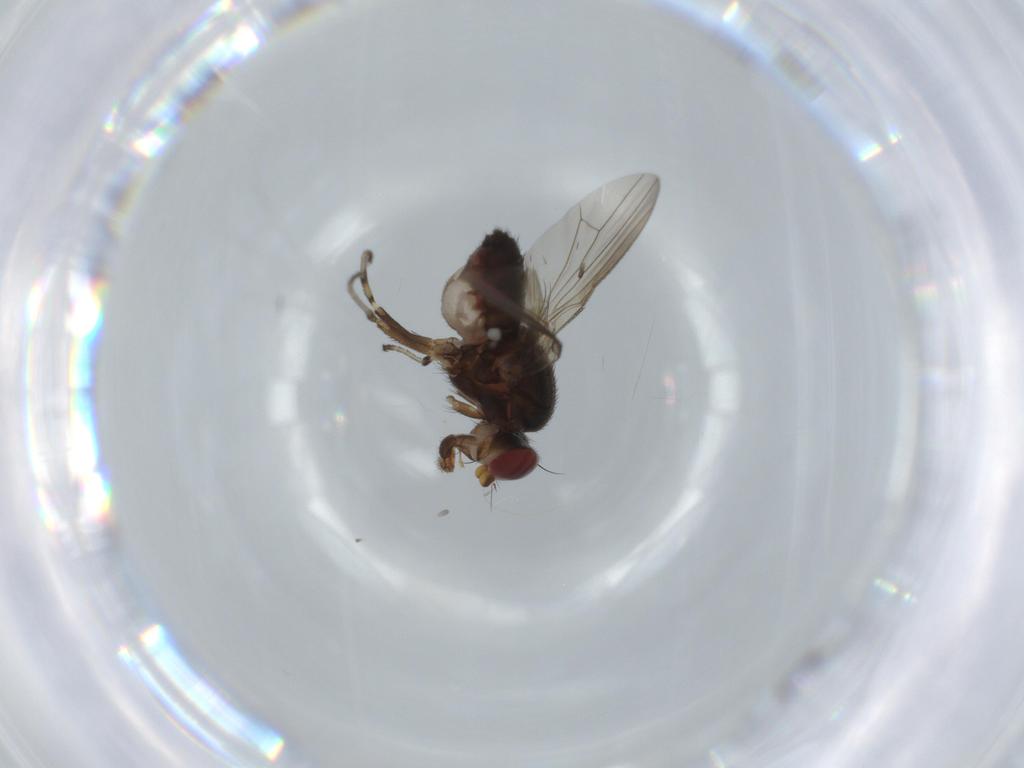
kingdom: Animalia
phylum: Arthropoda
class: Insecta
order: Diptera
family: Heleomyzidae
